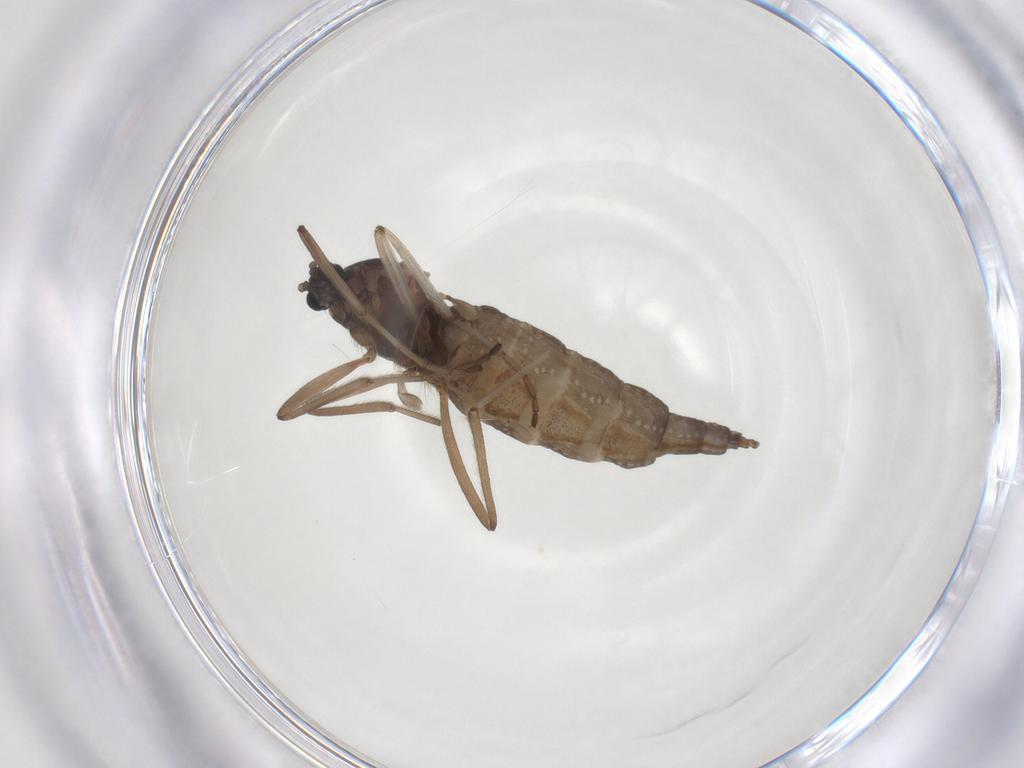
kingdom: Animalia
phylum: Arthropoda
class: Insecta
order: Diptera
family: Cecidomyiidae
